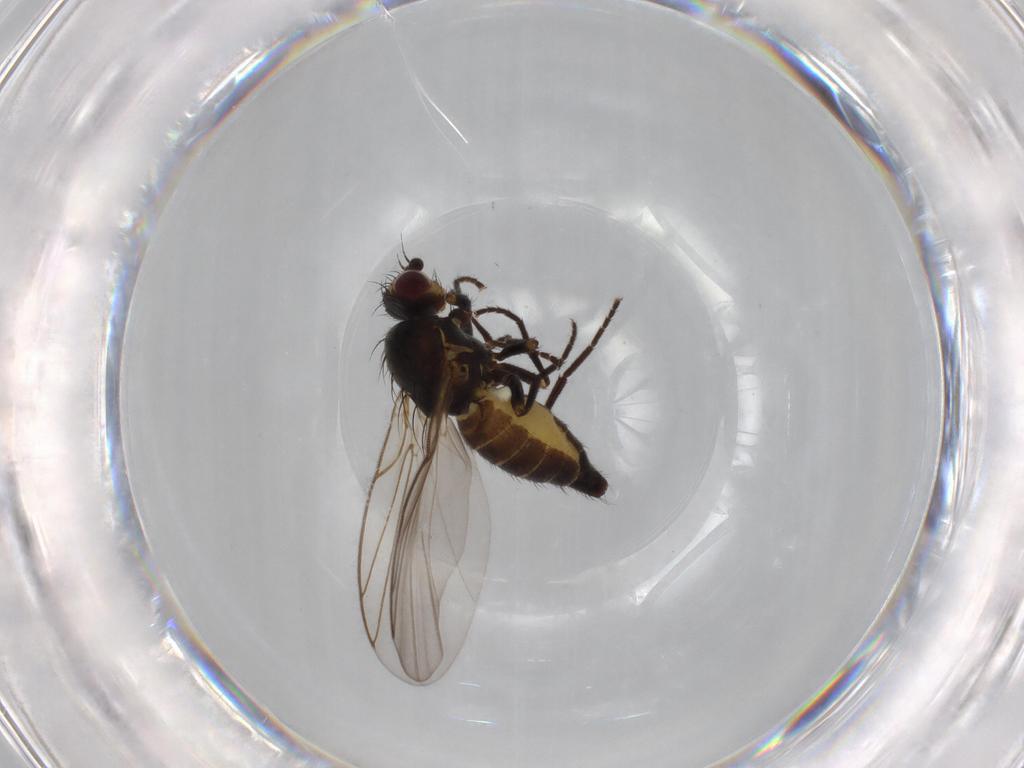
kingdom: Animalia
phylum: Arthropoda
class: Insecta
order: Diptera
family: Agromyzidae
